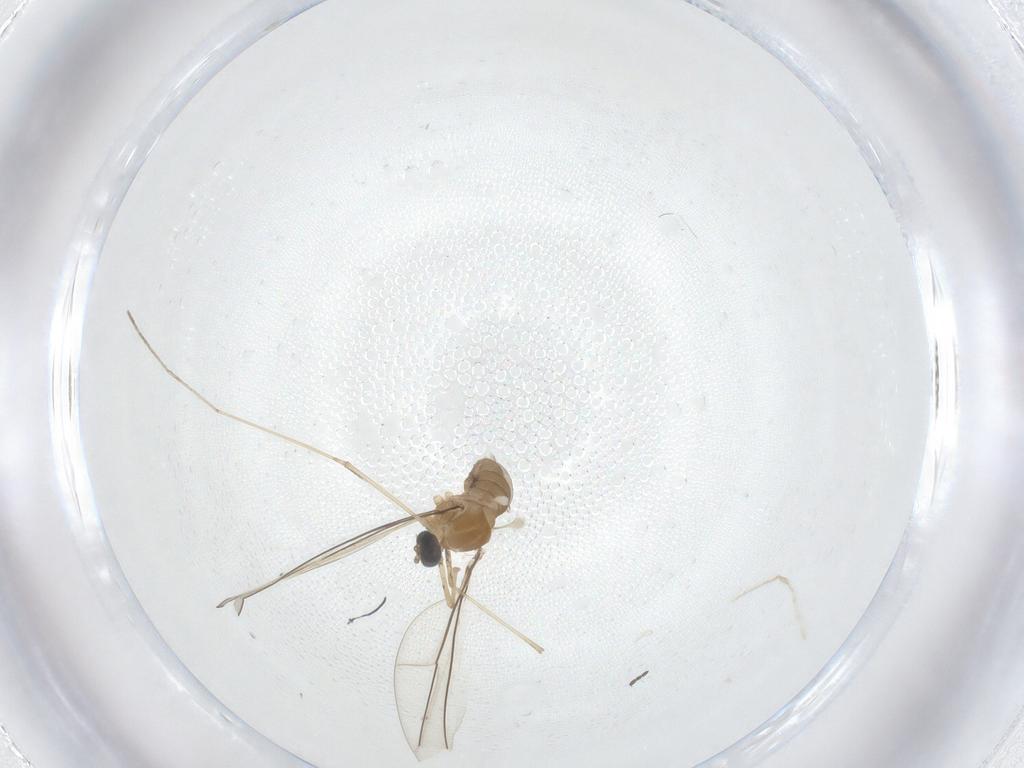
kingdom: Animalia
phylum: Arthropoda
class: Insecta
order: Diptera
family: Cecidomyiidae
